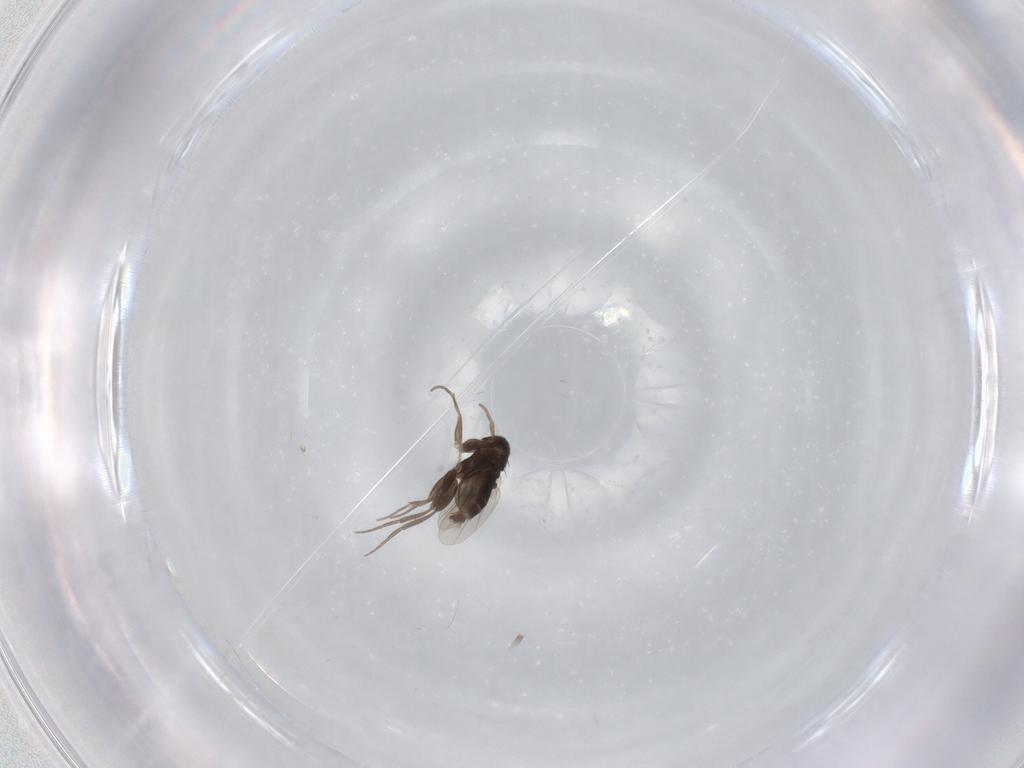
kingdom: Animalia
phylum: Arthropoda
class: Insecta
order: Diptera
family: Phoridae
